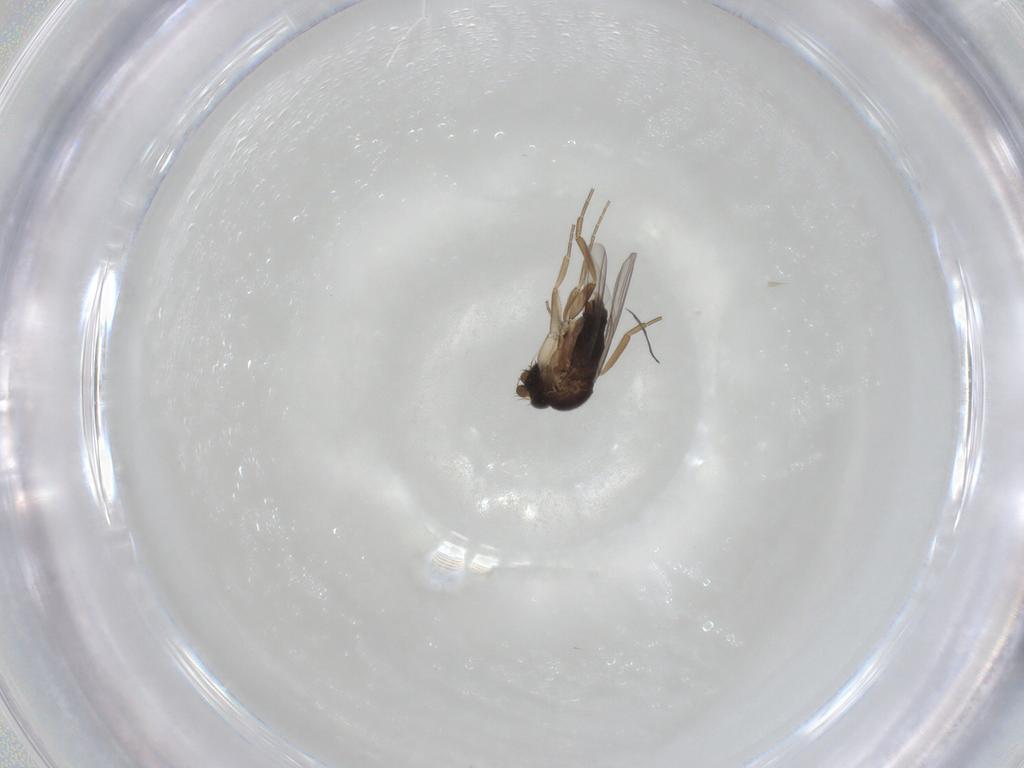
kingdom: Animalia
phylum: Arthropoda
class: Insecta
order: Diptera
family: Phoridae
